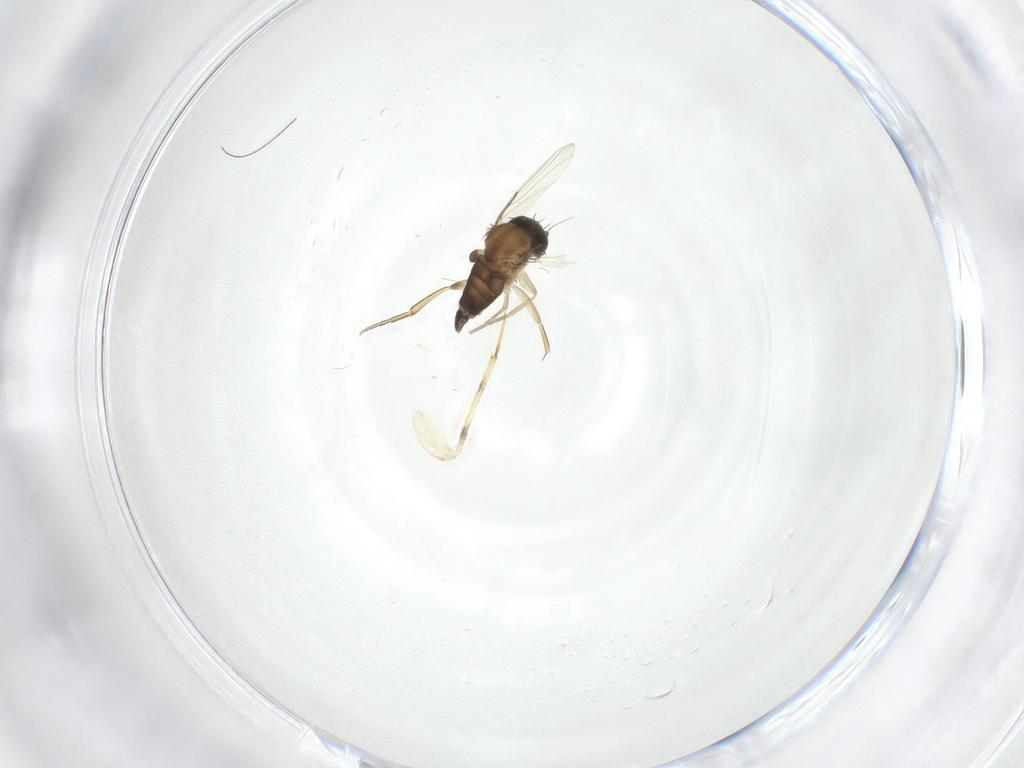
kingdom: Animalia
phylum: Arthropoda
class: Insecta
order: Diptera
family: Phoridae
